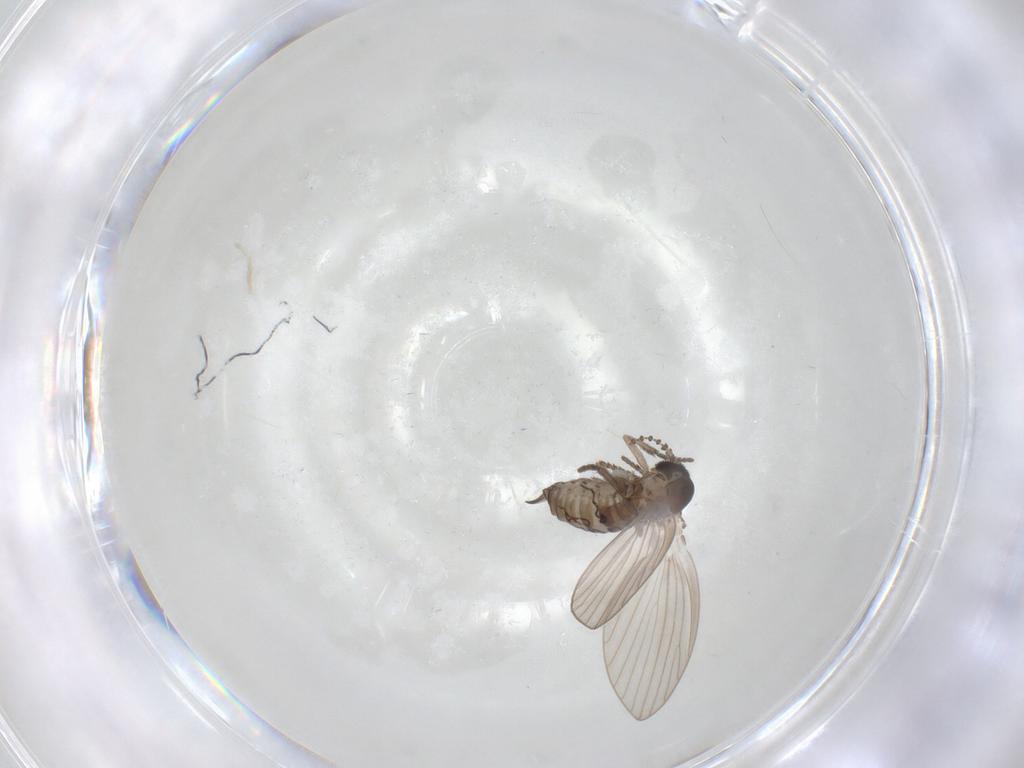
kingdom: Animalia
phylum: Arthropoda
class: Insecta
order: Diptera
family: Psychodidae
